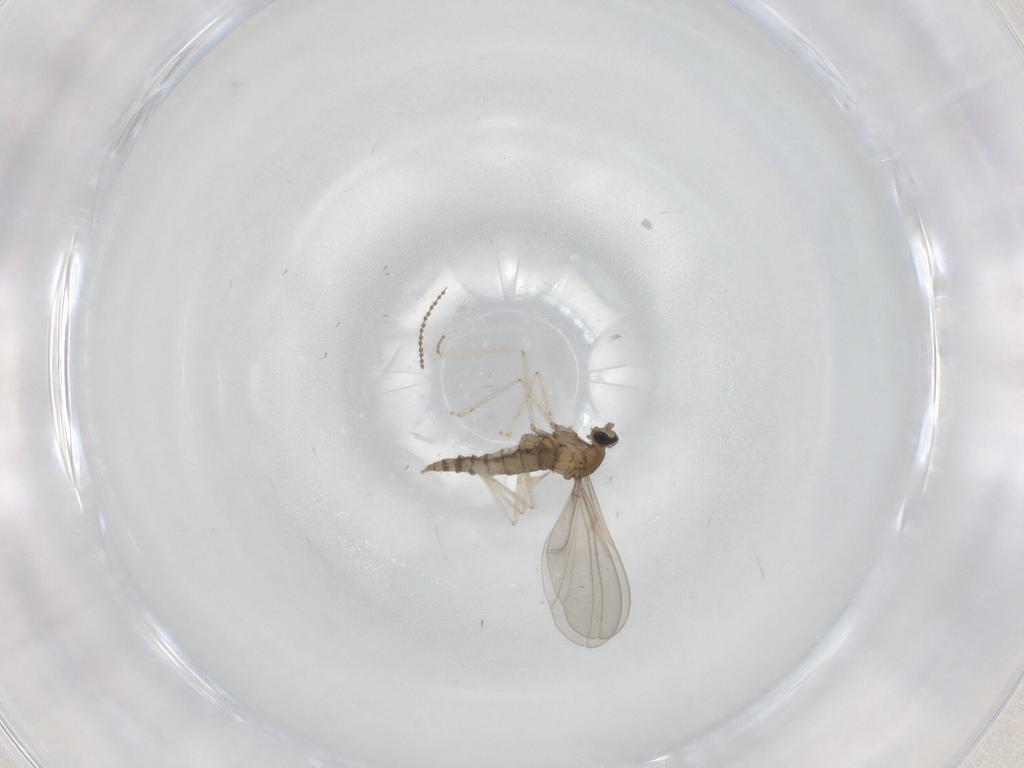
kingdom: Animalia
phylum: Arthropoda
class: Insecta
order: Diptera
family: Cecidomyiidae
